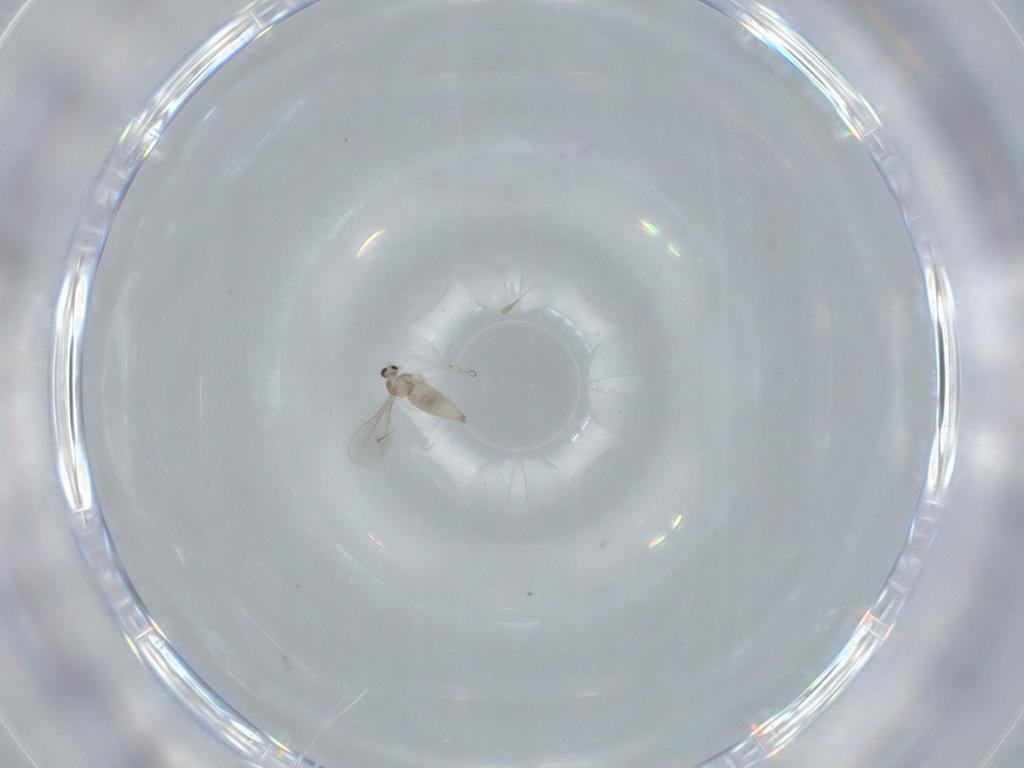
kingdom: Animalia
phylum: Arthropoda
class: Insecta
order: Diptera
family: Cecidomyiidae
